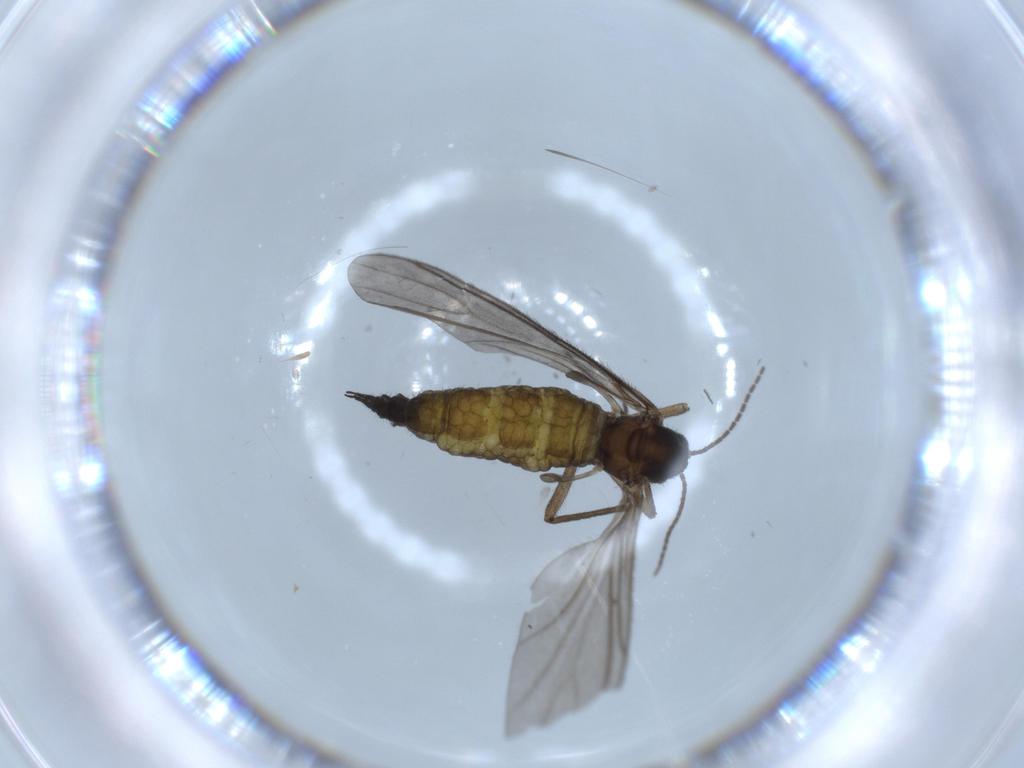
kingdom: Animalia
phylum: Arthropoda
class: Insecta
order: Diptera
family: Sciaridae
